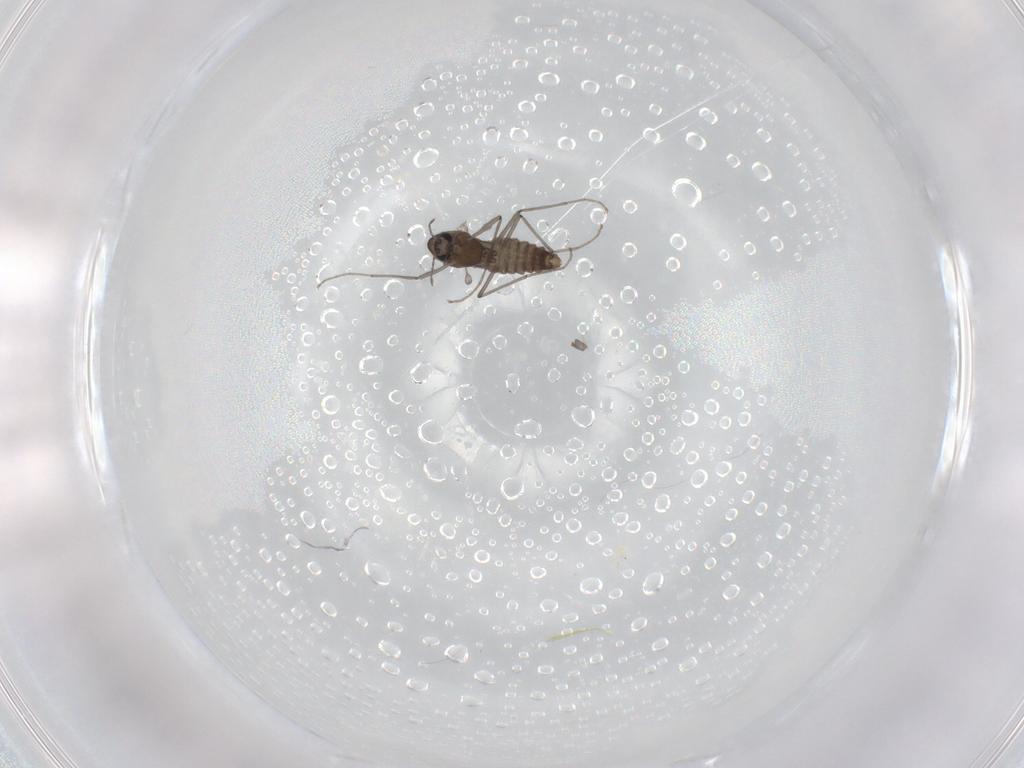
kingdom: Animalia
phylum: Arthropoda
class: Insecta
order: Diptera
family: Chironomidae
